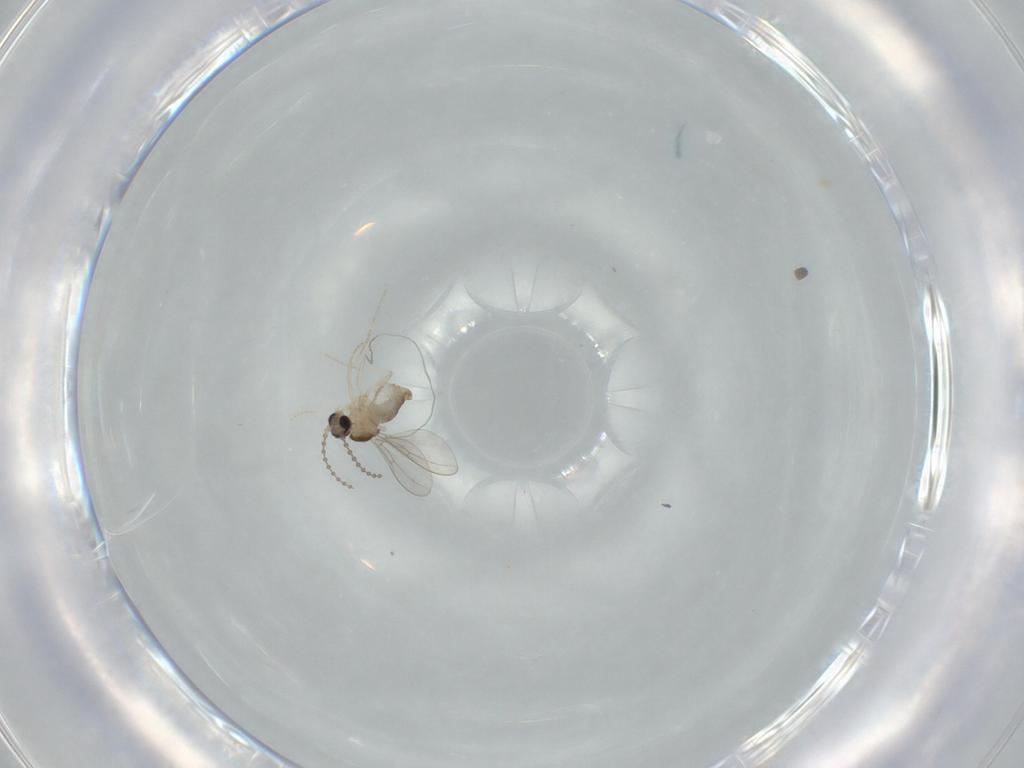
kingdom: Animalia
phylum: Arthropoda
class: Insecta
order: Diptera
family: Cecidomyiidae
